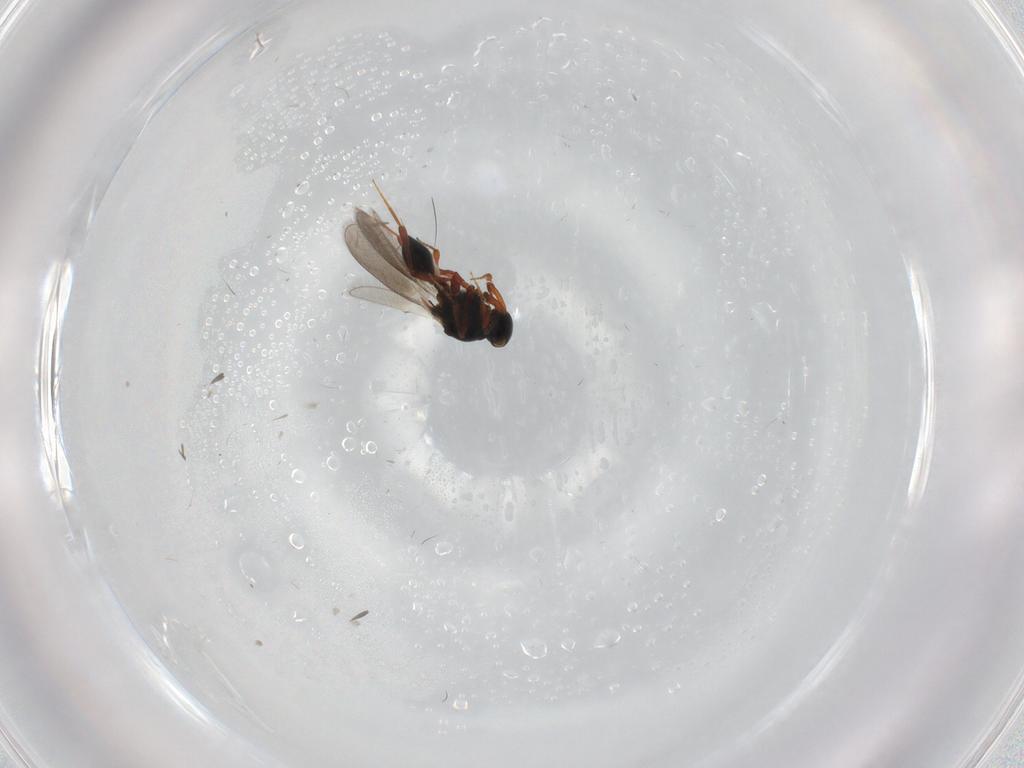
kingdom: Animalia
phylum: Arthropoda
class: Insecta
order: Hymenoptera
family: Platygastridae
